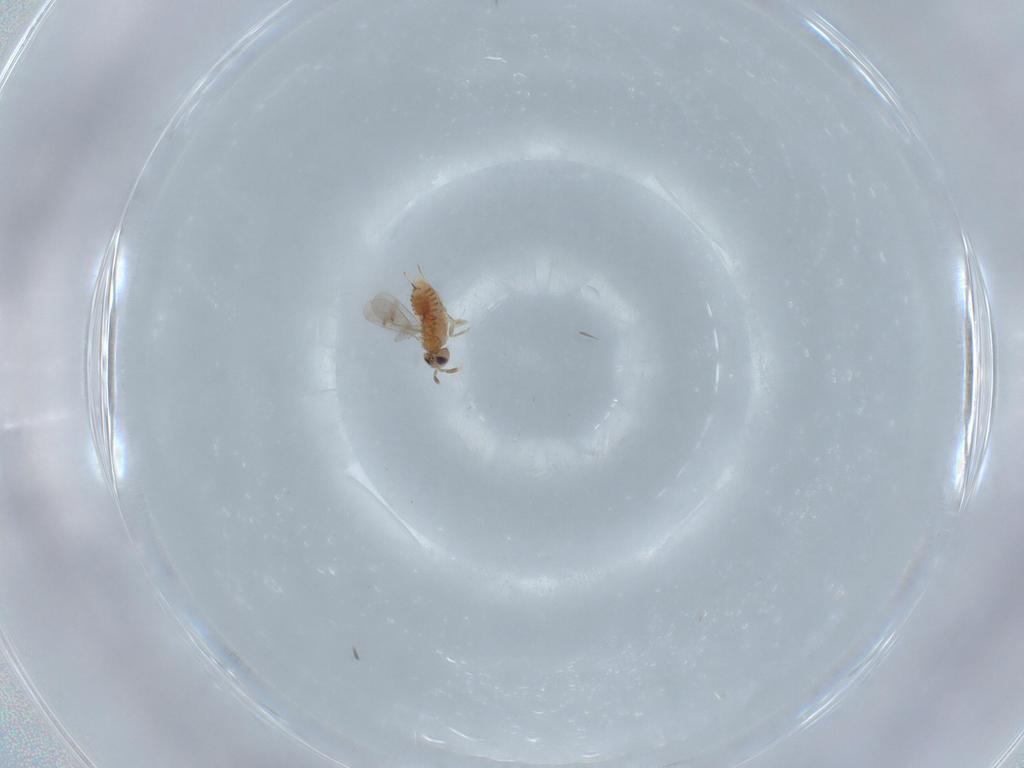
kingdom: Animalia
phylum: Arthropoda
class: Insecta
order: Hymenoptera
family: Aphelinidae
